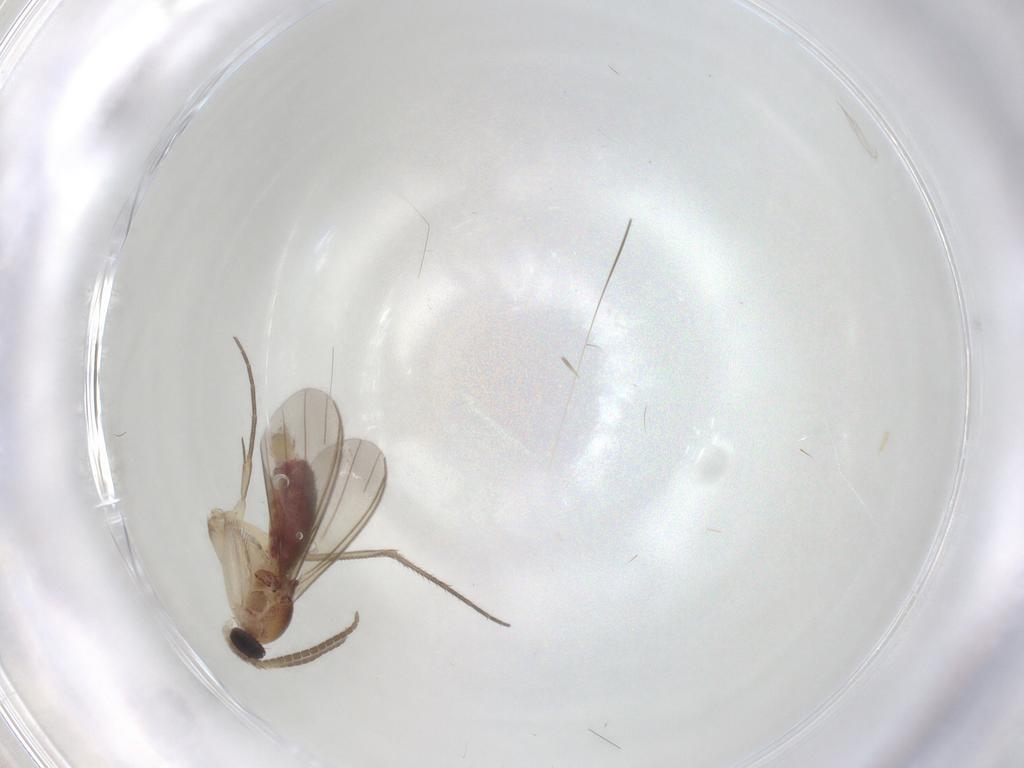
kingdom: Animalia
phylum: Arthropoda
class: Insecta
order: Diptera
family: Mycetophilidae
